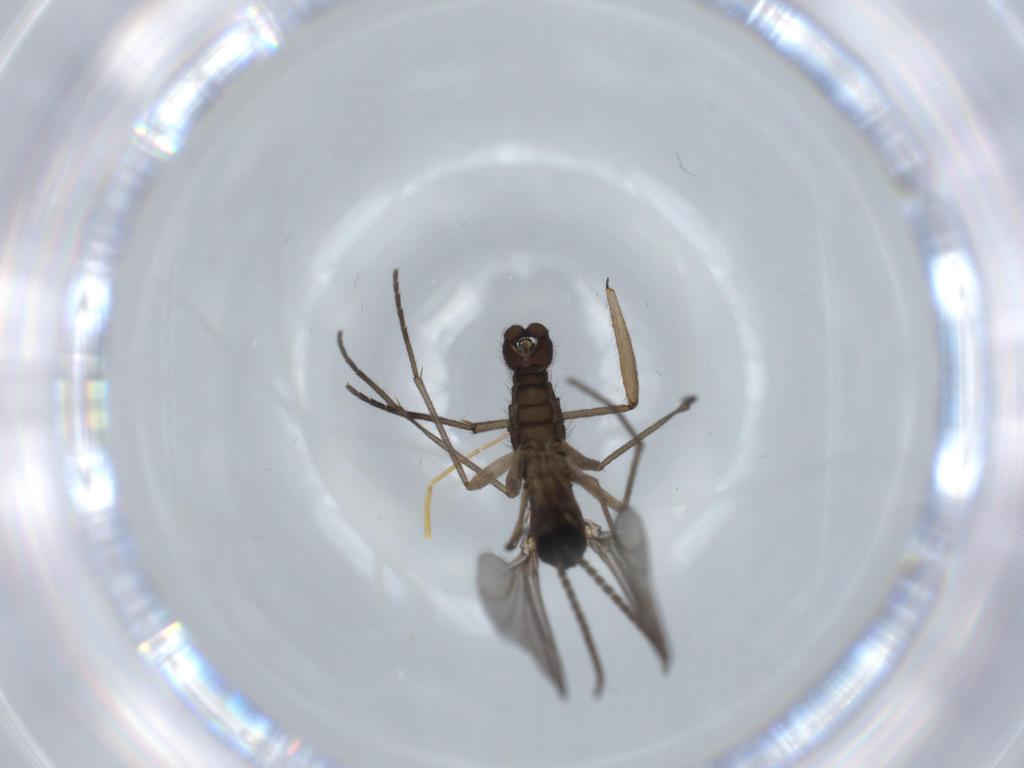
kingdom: Animalia
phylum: Arthropoda
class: Insecta
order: Diptera
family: Sciaridae
